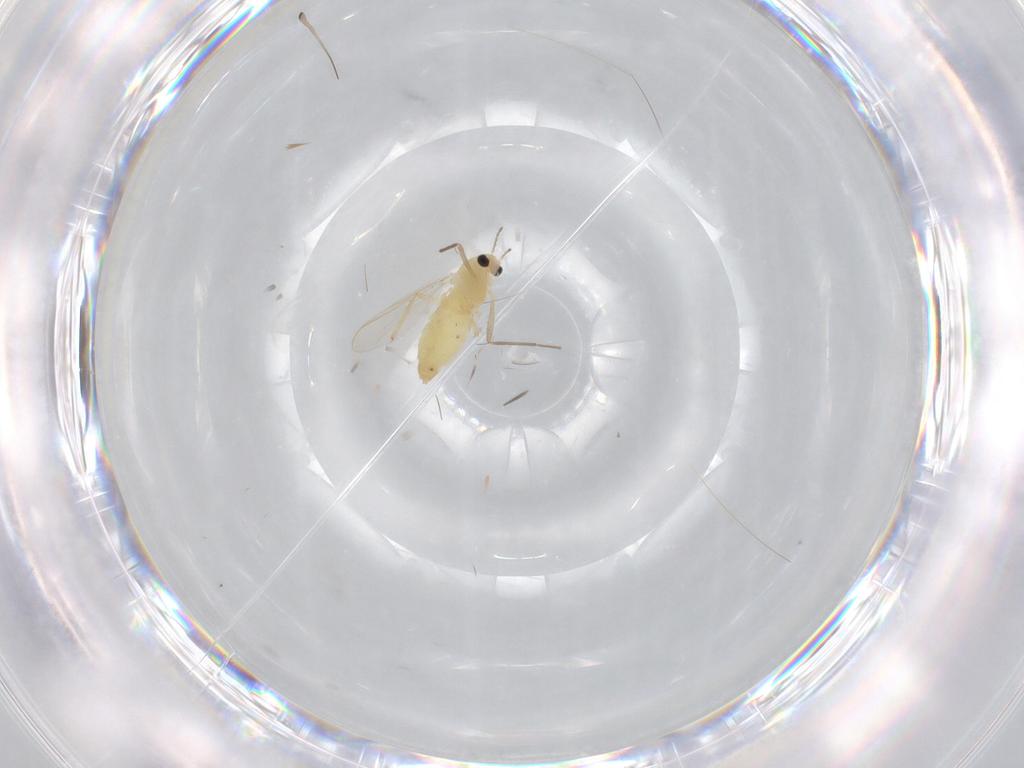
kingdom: Animalia
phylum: Arthropoda
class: Insecta
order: Diptera
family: Chironomidae
